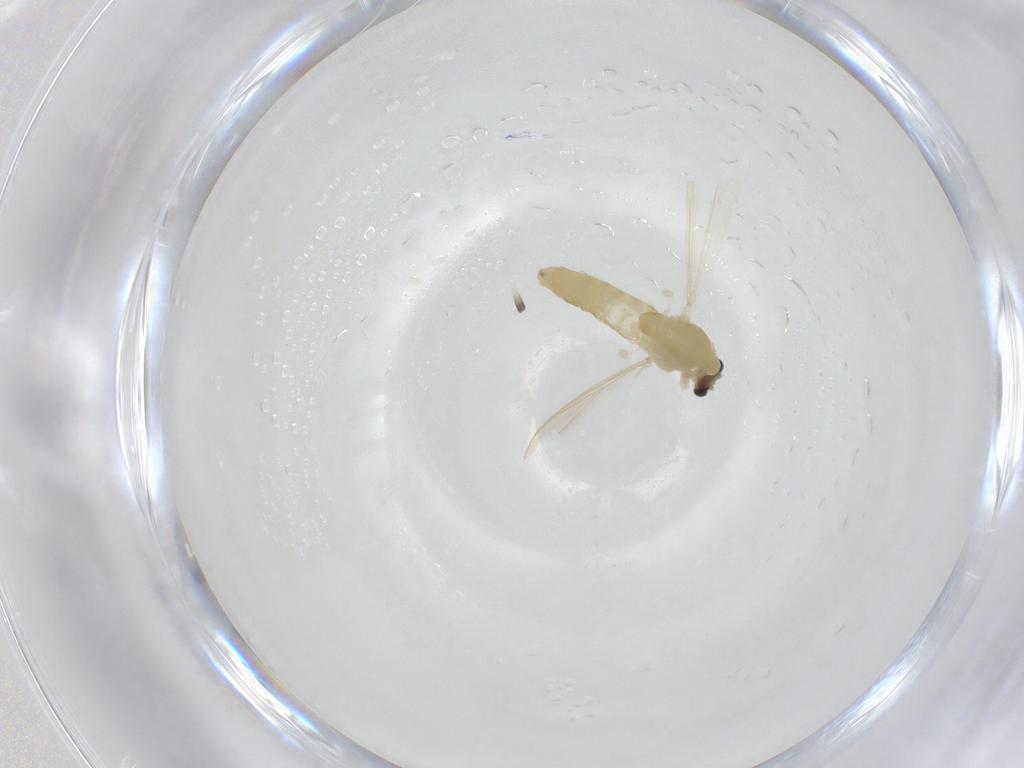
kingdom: Animalia
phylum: Arthropoda
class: Insecta
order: Diptera
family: Chironomidae
